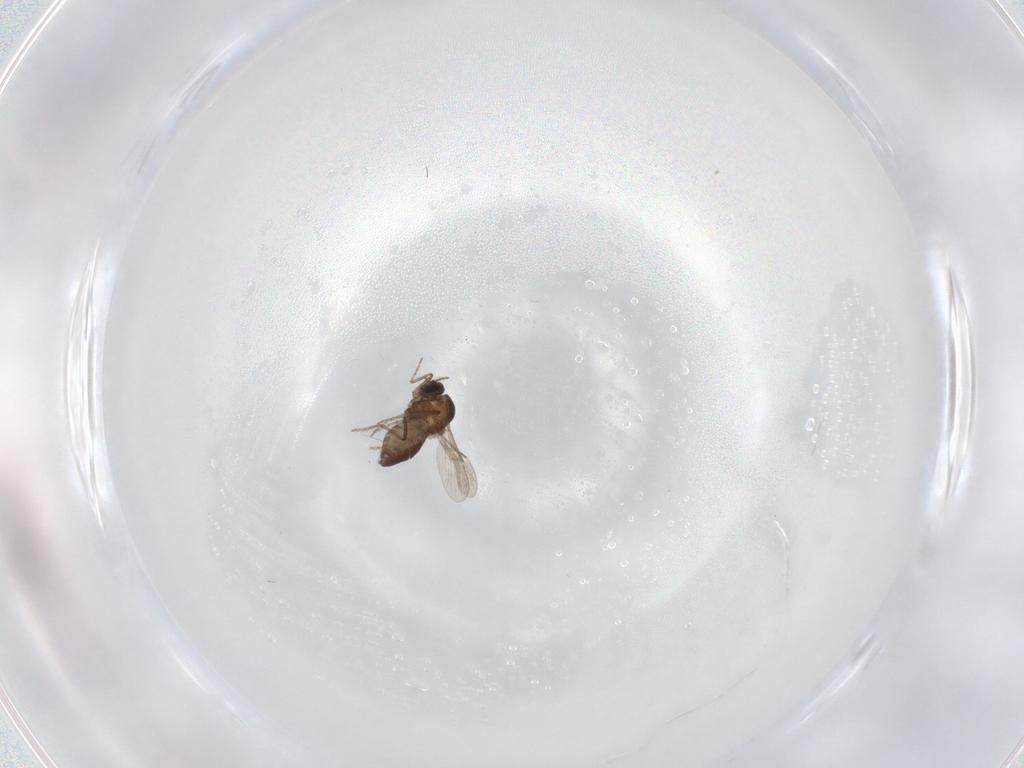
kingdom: Animalia
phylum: Arthropoda
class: Insecta
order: Diptera
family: Ceratopogonidae
